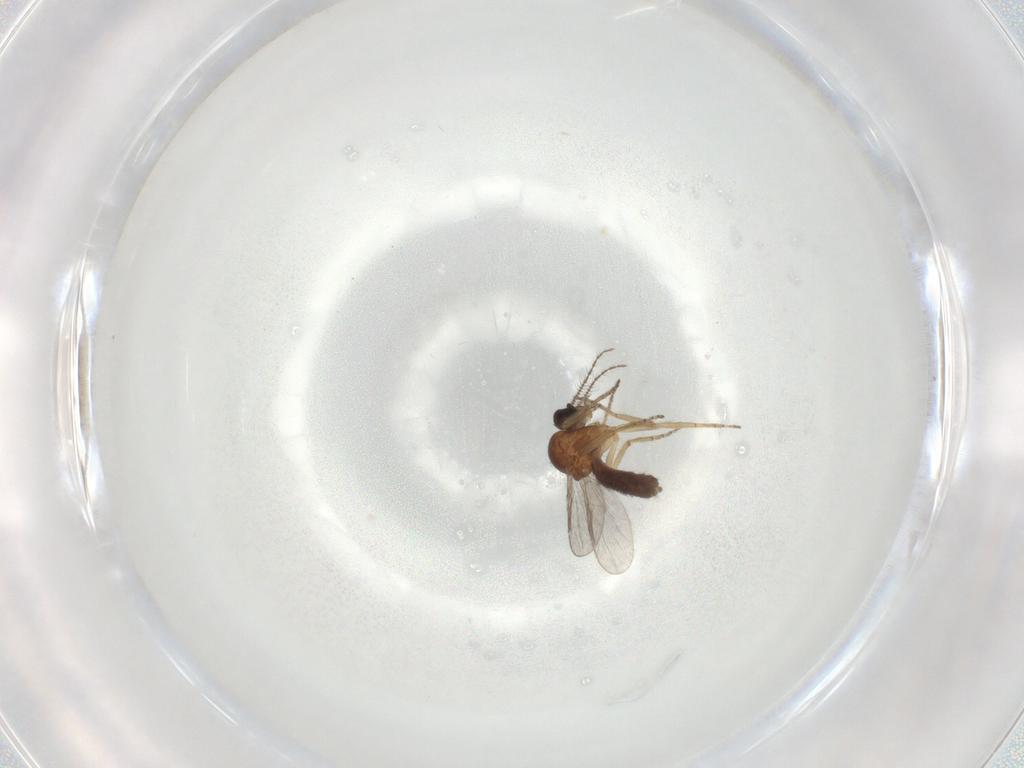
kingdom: Animalia
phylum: Arthropoda
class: Insecta
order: Diptera
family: Ceratopogonidae
